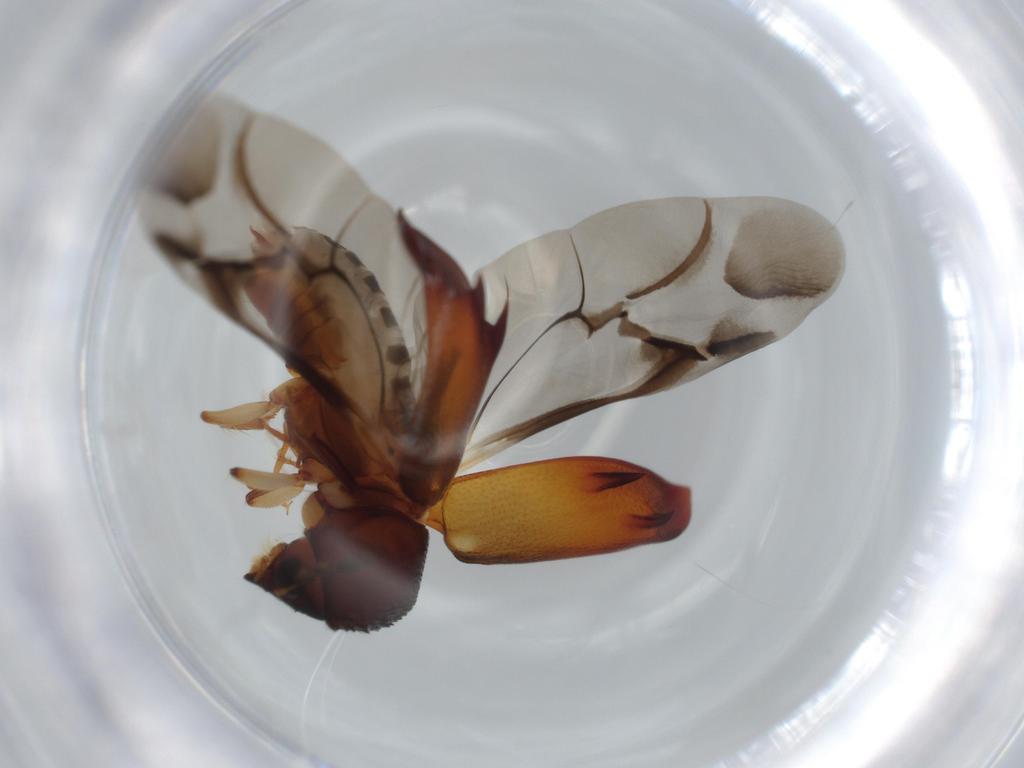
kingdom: Animalia
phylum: Arthropoda
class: Insecta
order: Coleoptera
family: Bostrichidae
